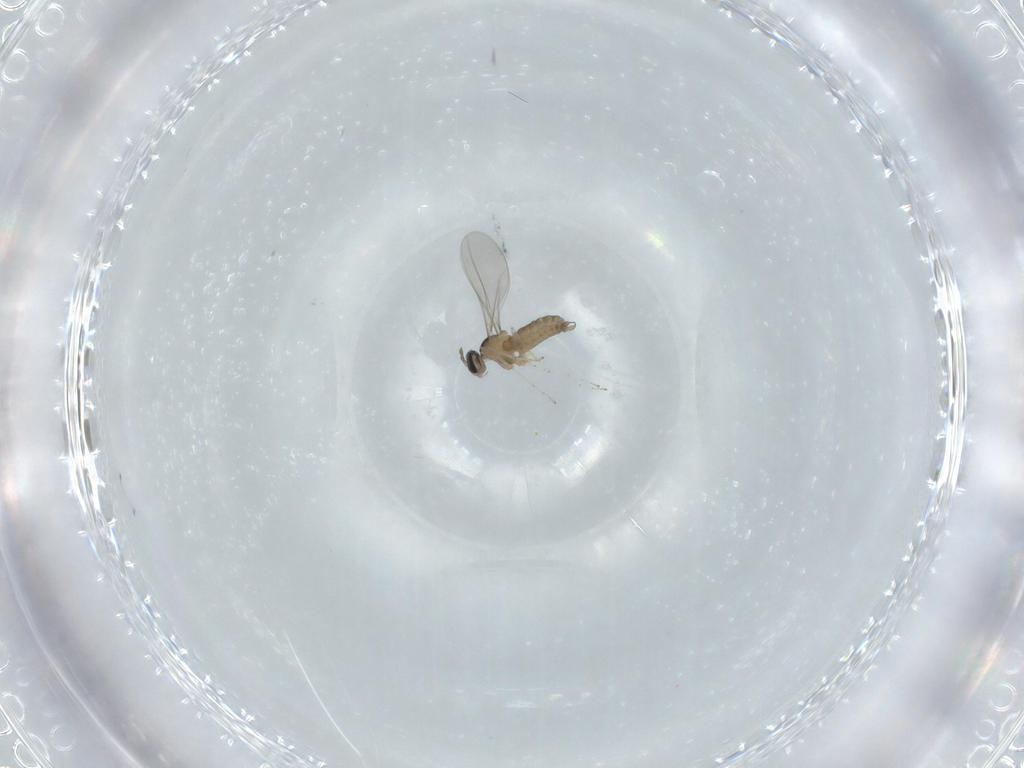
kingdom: Animalia
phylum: Arthropoda
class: Insecta
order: Diptera
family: Cecidomyiidae
